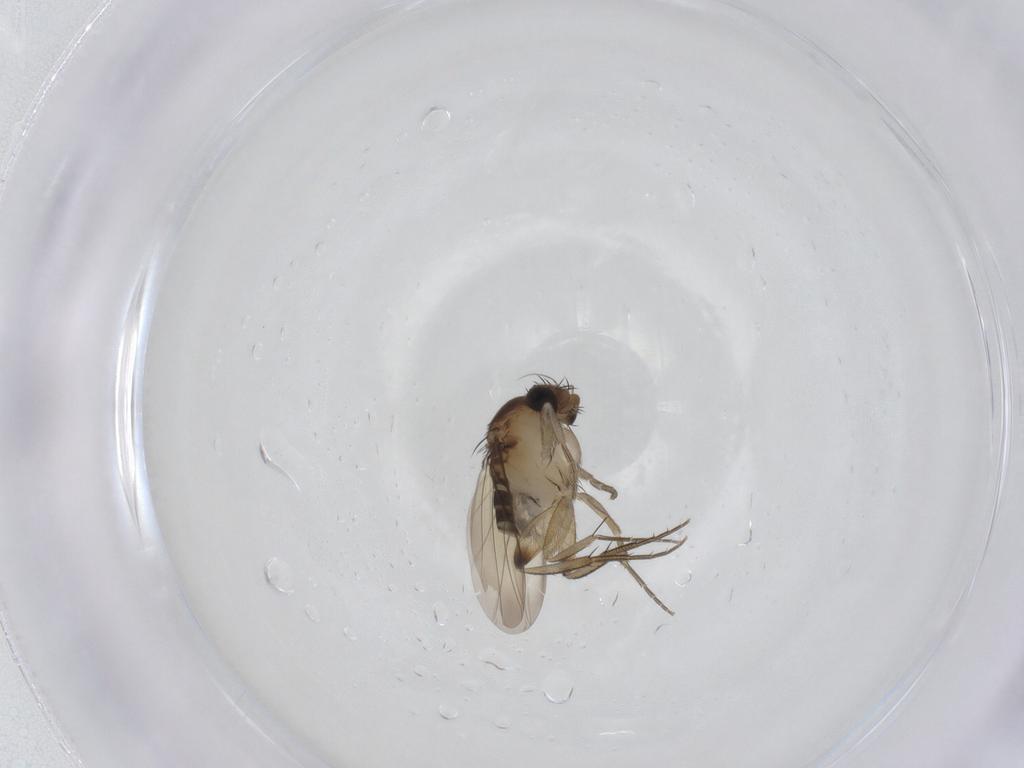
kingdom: Animalia
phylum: Arthropoda
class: Insecta
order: Diptera
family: Phoridae
